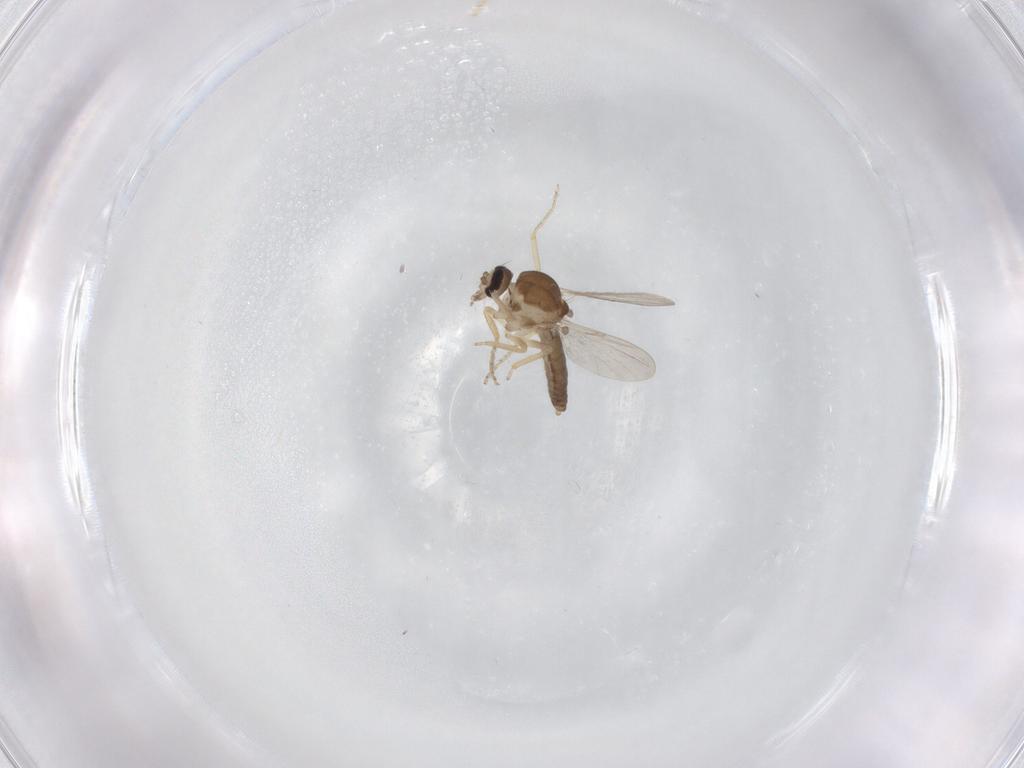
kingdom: Animalia
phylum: Arthropoda
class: Insecta
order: Diptera
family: Ceratopogonidae
